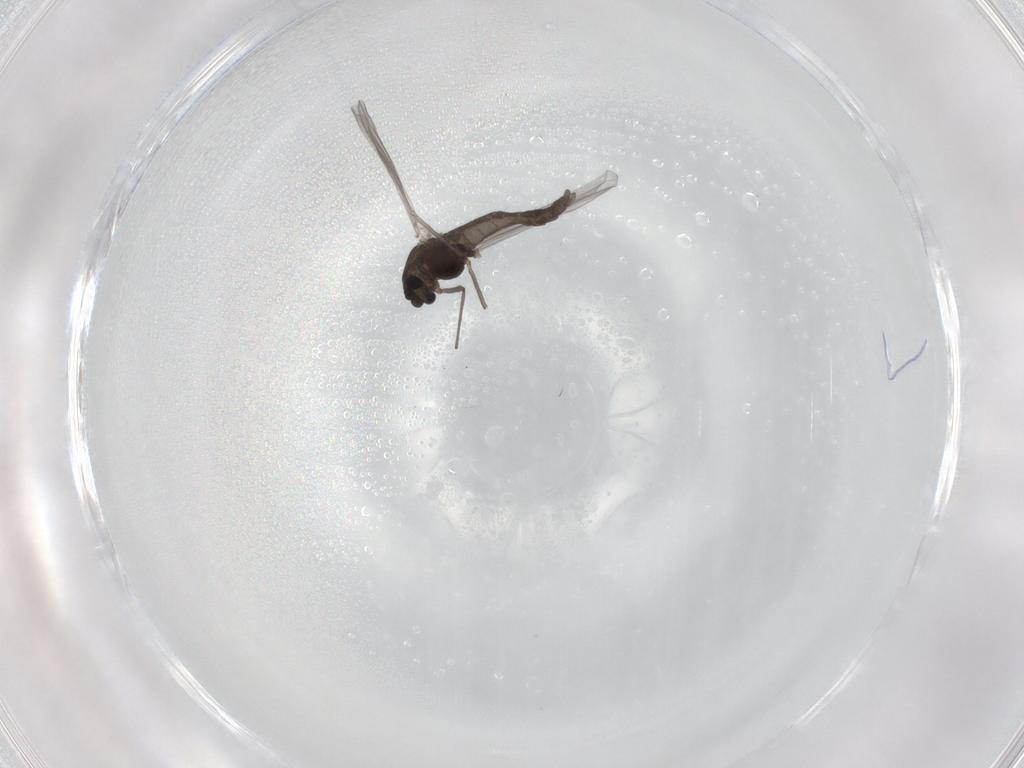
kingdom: Animalia
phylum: Arthropoda
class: Insecta
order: Diptera
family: Chironomidae
